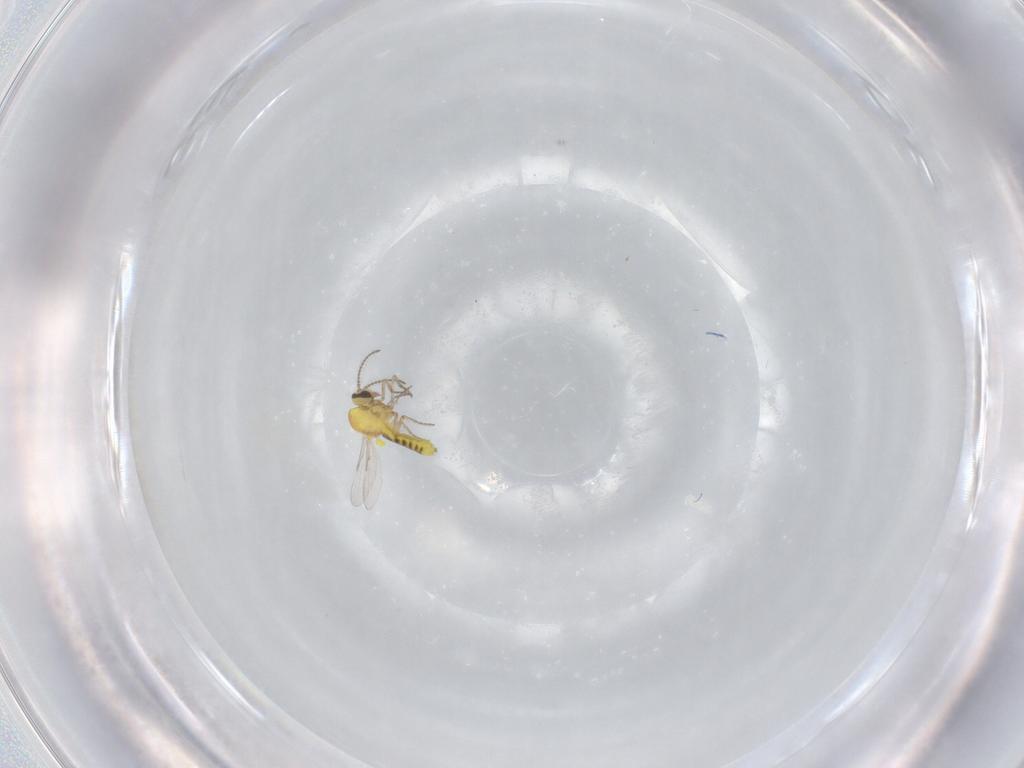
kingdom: Animalia
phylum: Arthropoda
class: Insecta
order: Diptera
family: Ceratopogonidae
